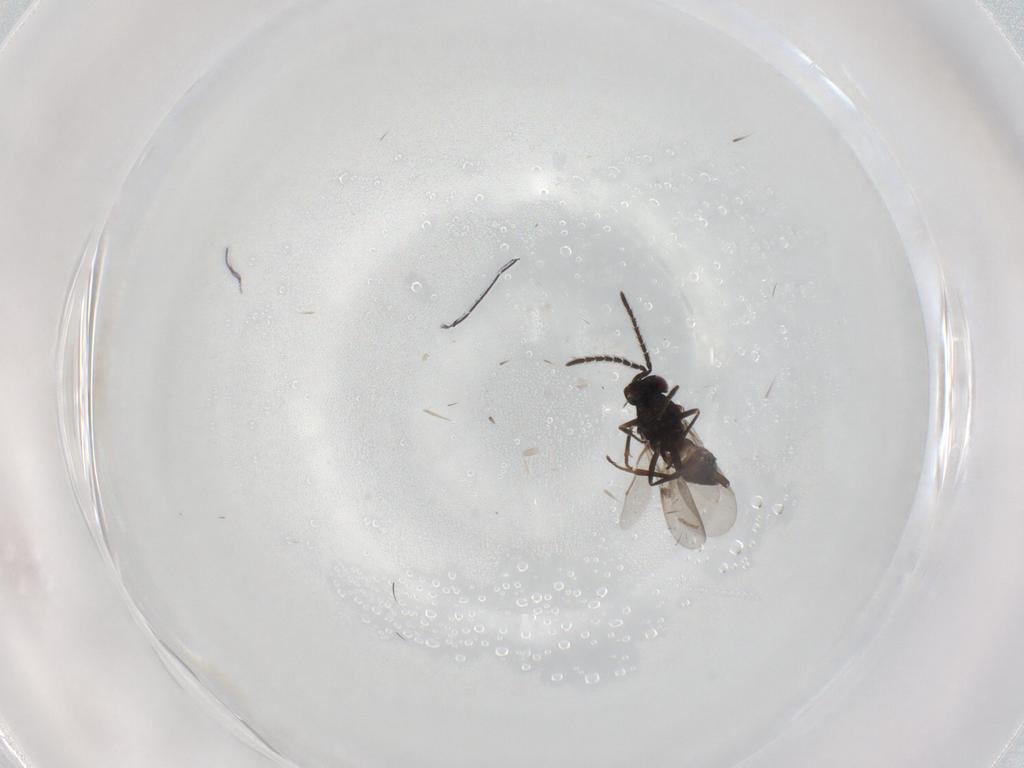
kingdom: Animalia
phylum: Arthropoda
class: Insecta
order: Hymenoptera
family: Encyrtidae
